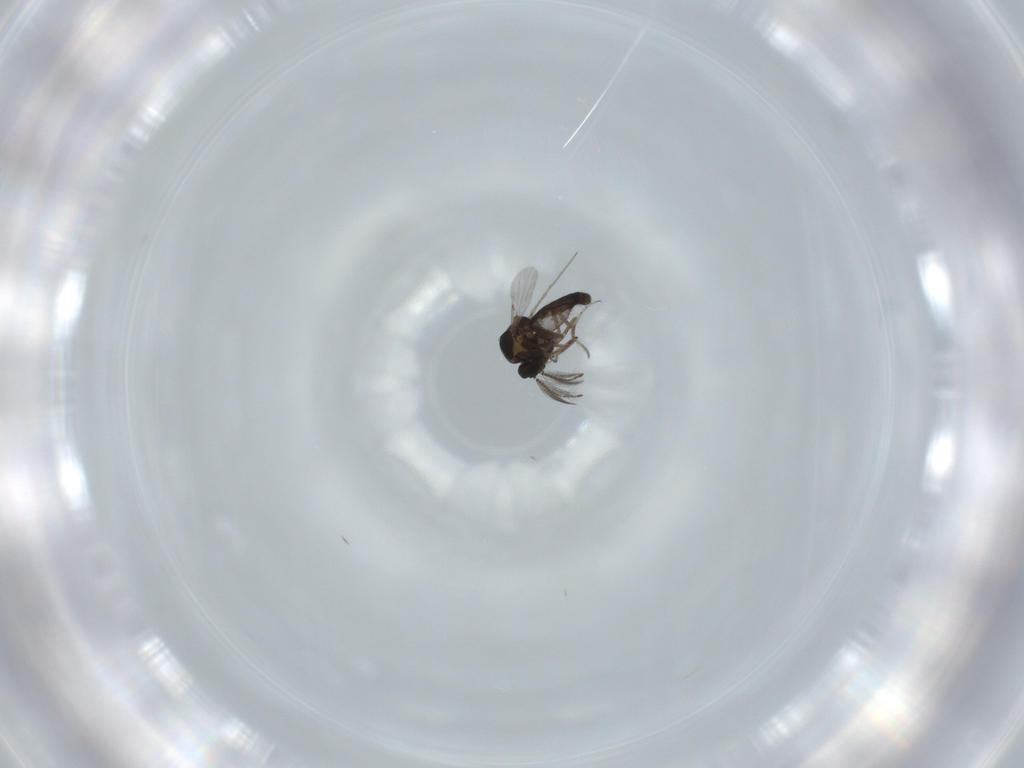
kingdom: Animalia
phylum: Arthropoda
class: Insecta
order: Diptera
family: Ceratopogonidae
